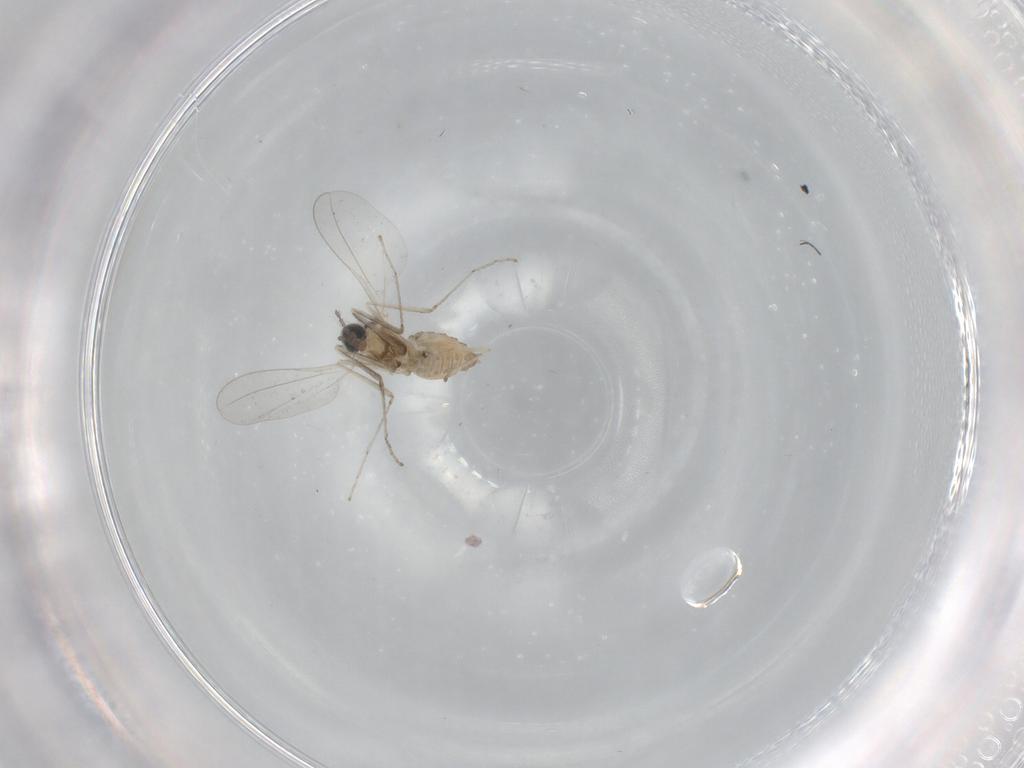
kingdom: Animalia
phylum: Arthropoda
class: Insecta
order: Diptera
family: Cecidomyiidae
